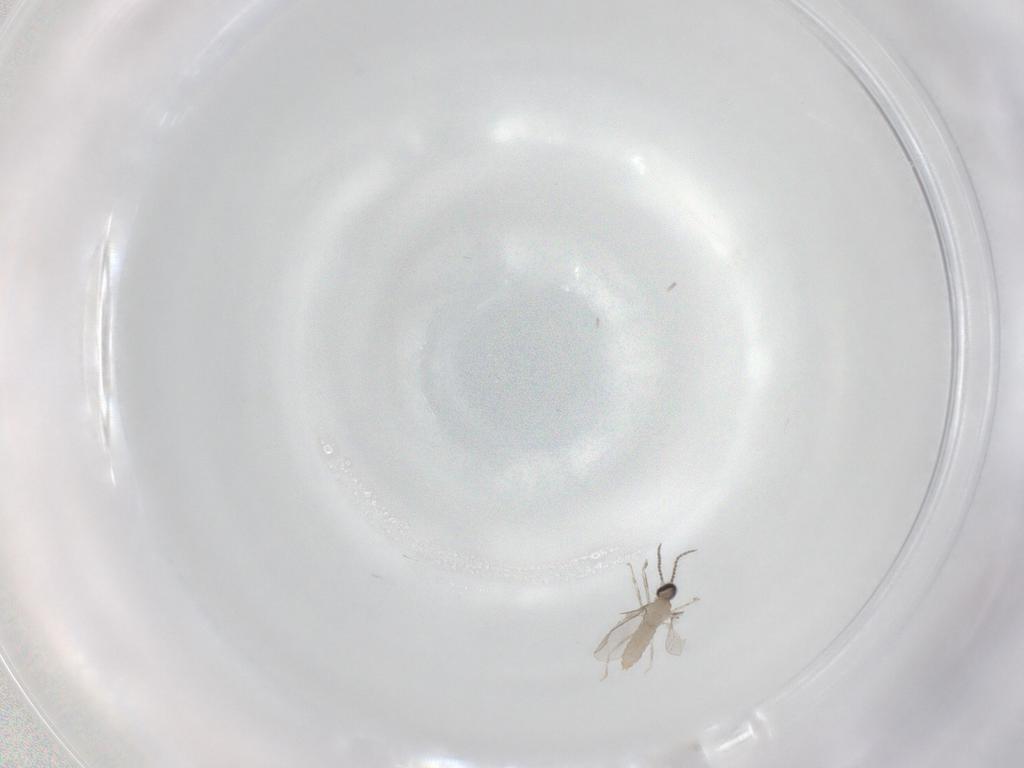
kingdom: Animalia
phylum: Arthropoda
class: Insecta
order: Diptera
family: Cecidomyiidae
